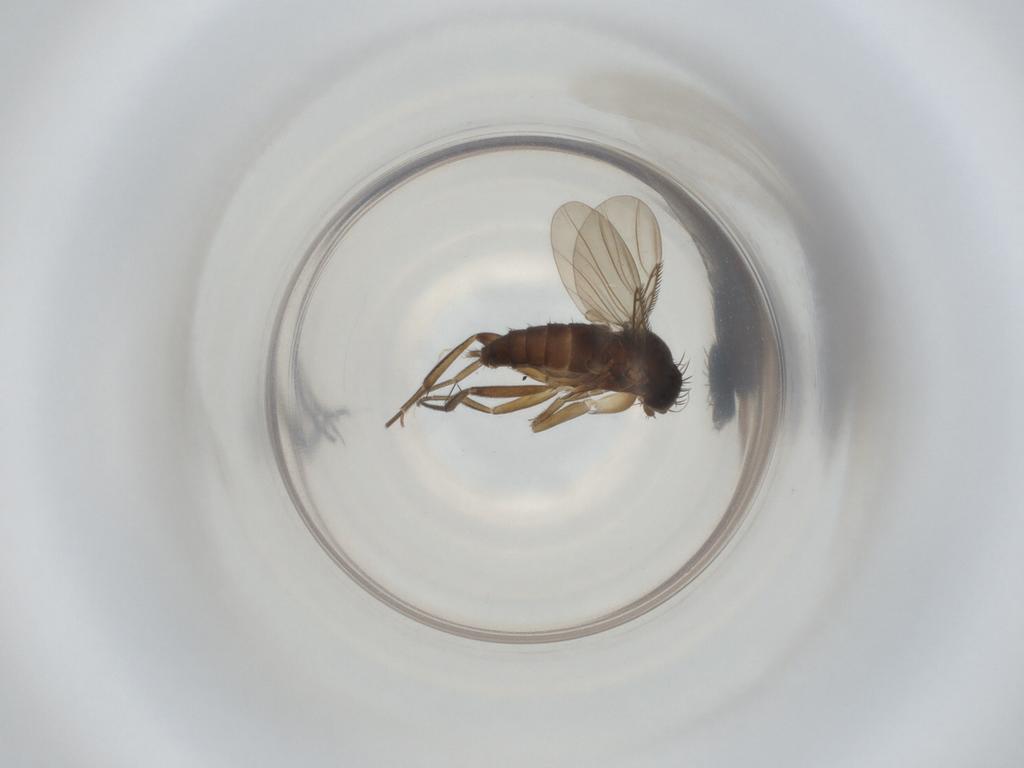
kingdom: Animalia
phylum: Arthropoda
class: Insecta
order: Diptera
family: Phoridae
